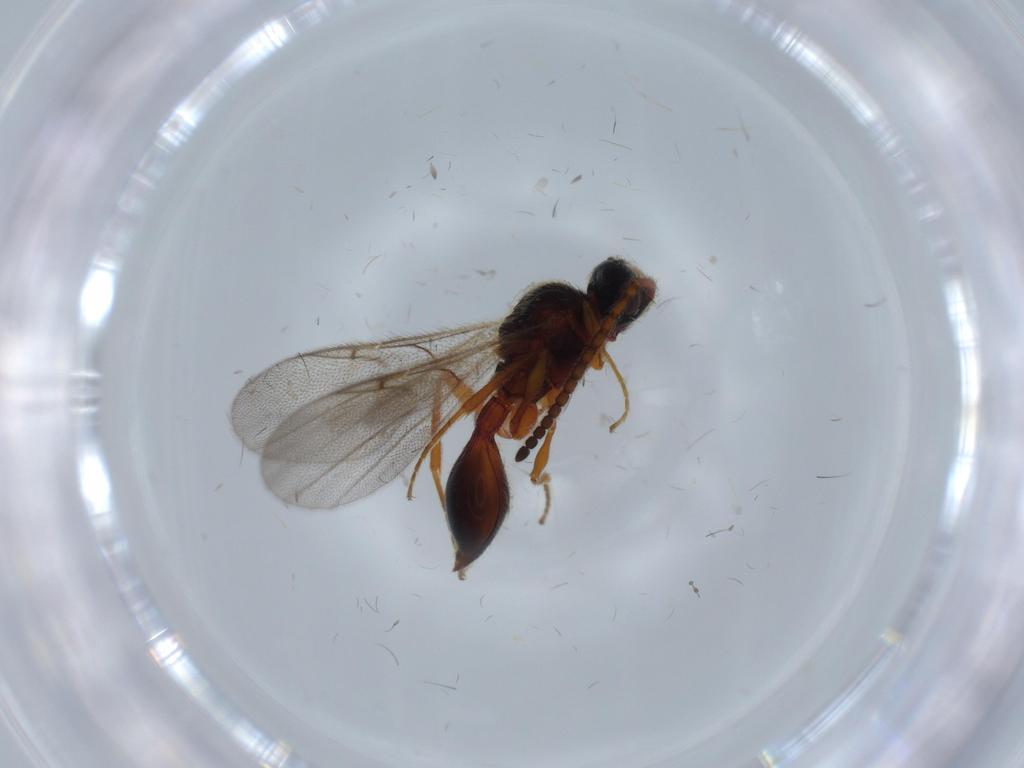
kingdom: Animalia
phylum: Arthropoda
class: Insecta
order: Hymenoptera
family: Diapriidae
